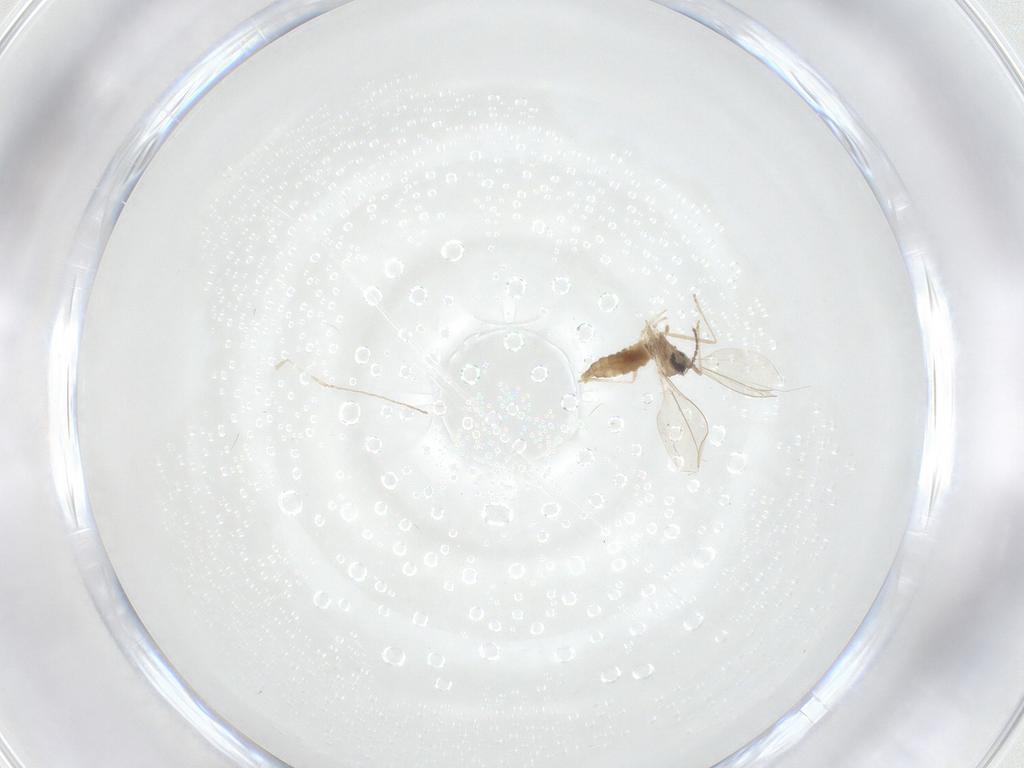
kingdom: Animalia
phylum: Arthropoda
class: Insecta
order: Diptera
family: Cecidomyiidae
